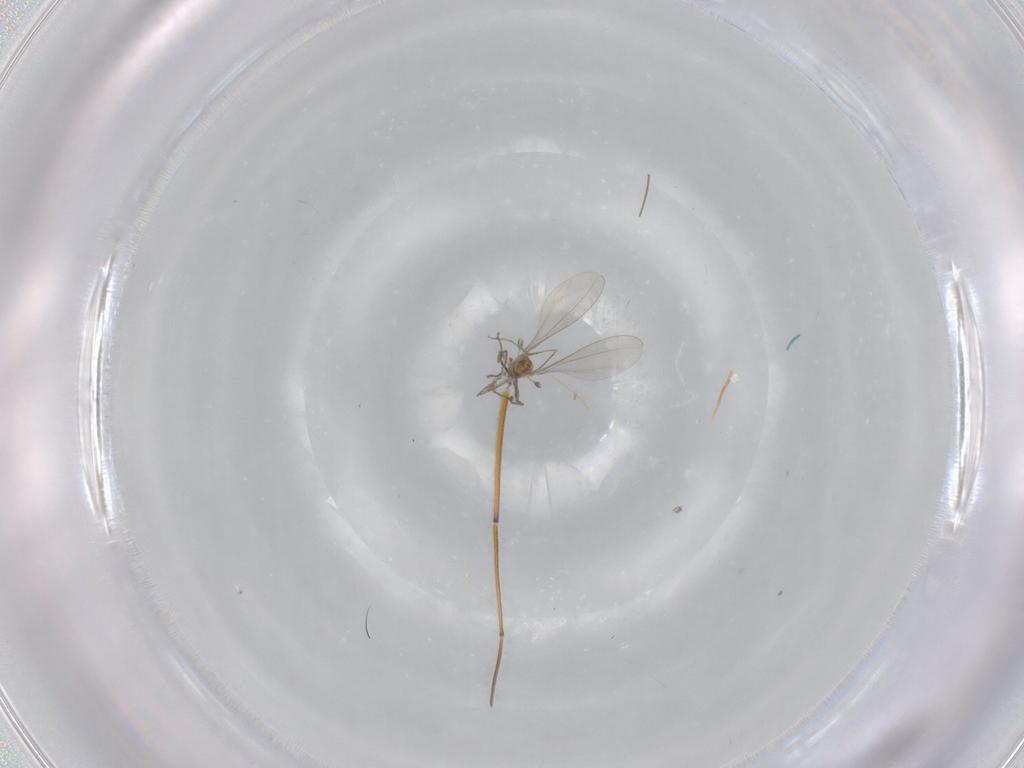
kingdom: Animalia
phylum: Arthropoda
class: Insecta
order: Diptera
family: Cecidomyiidae
